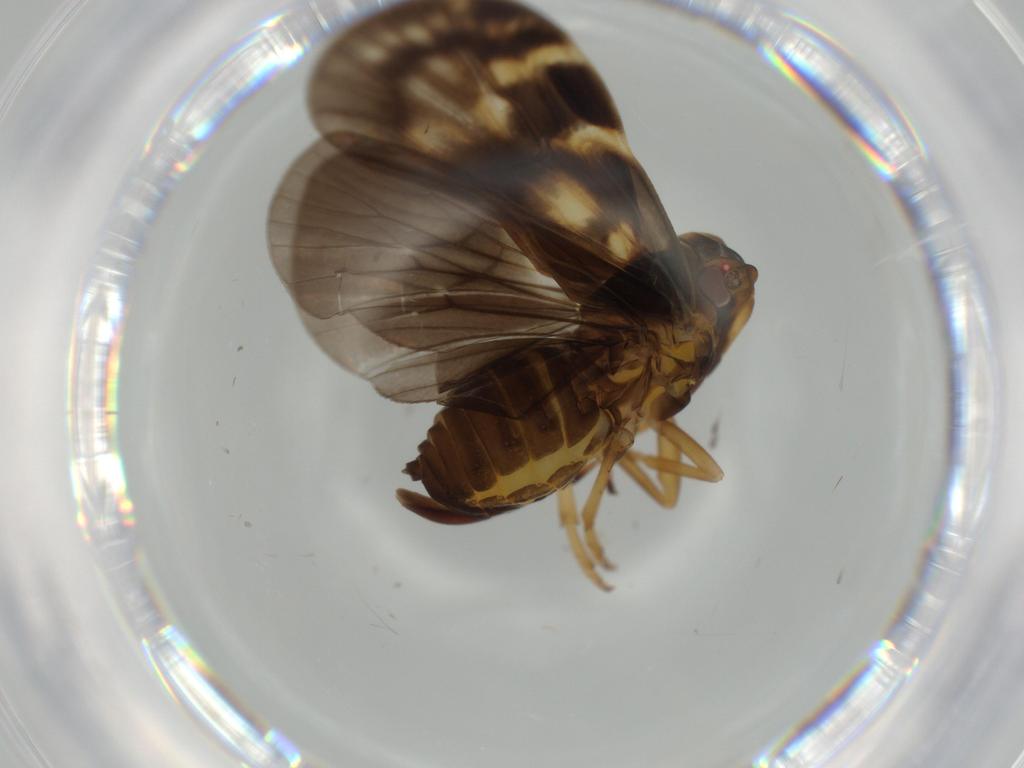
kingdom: Animalia
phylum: Arthropoda
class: Insecta
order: Hemiptera
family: Cixiidae
